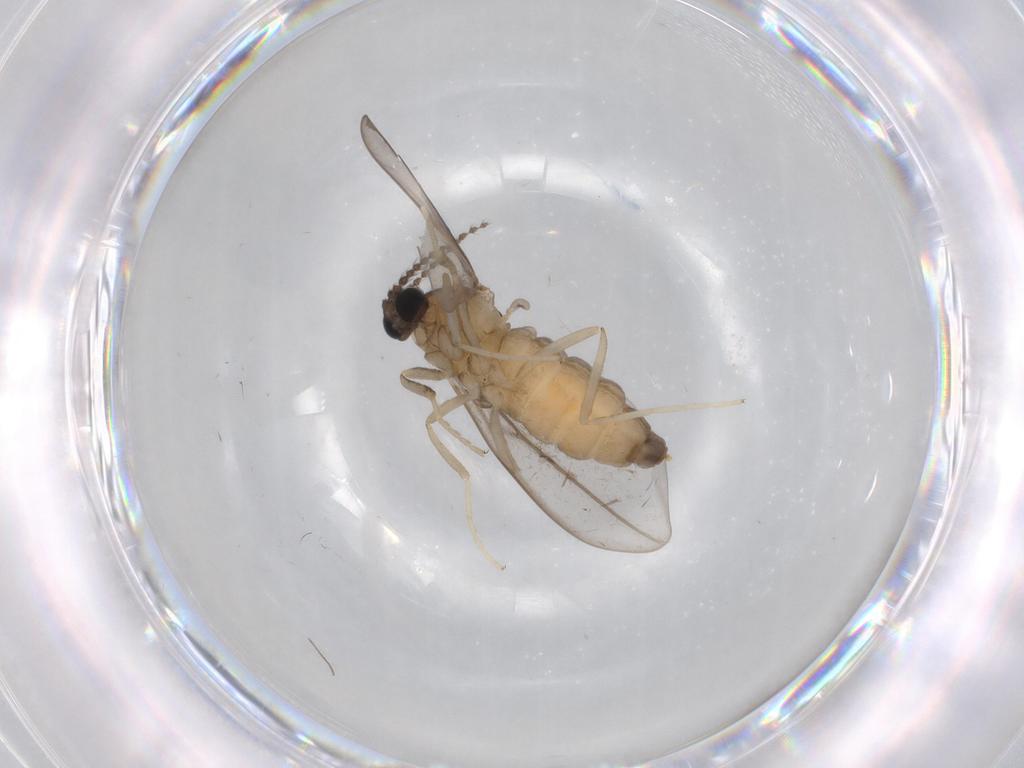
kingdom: Animalia
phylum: Arthropoda
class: Insecta
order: Diptera
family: Cecidomyiidae
